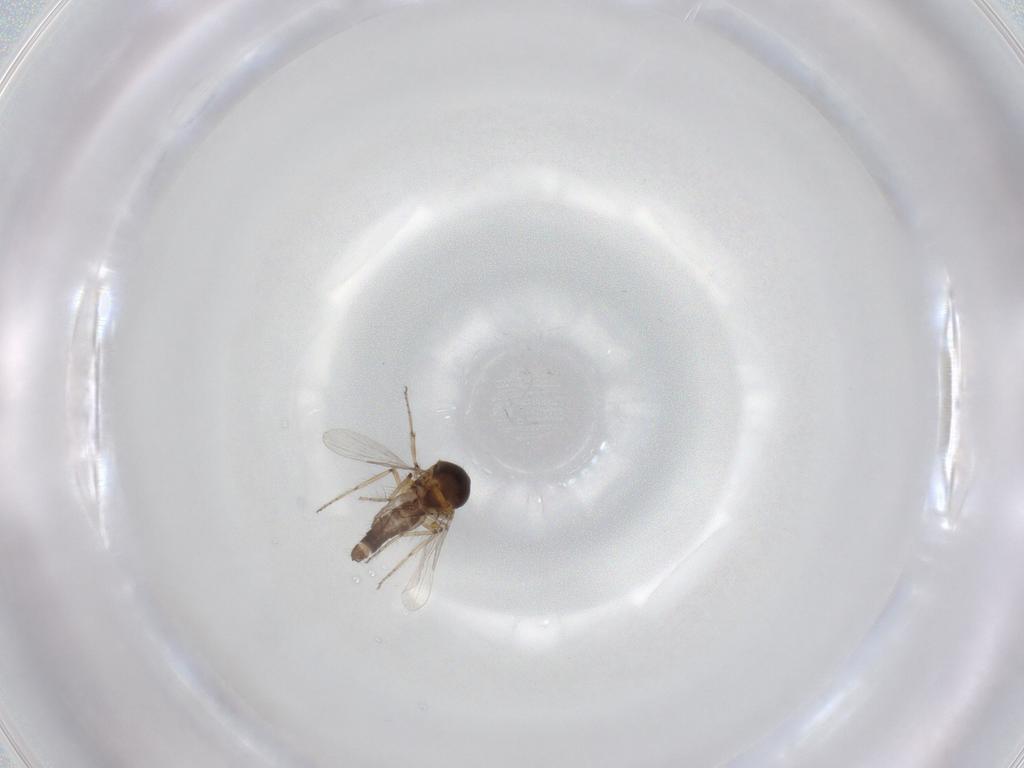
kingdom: Animalia
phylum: Arthropoda
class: Insecta
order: Diptera
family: Ceratopogonidae
